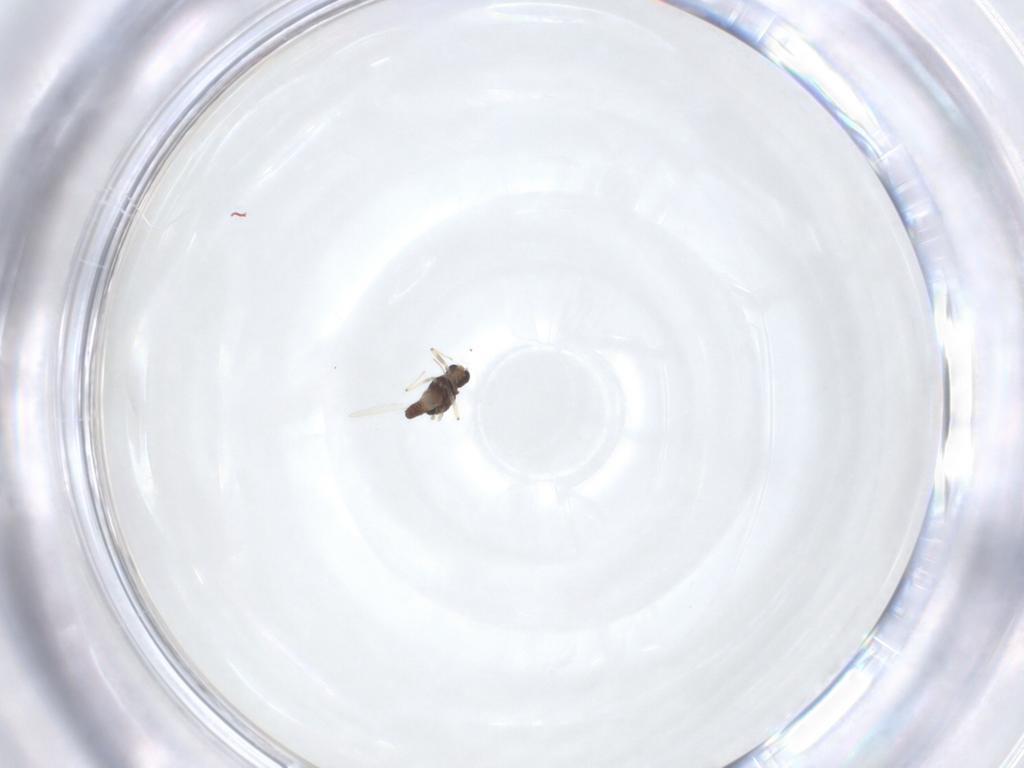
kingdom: Animalia
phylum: Arthropoda
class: Insecta
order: Diptera
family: Chironomidae
